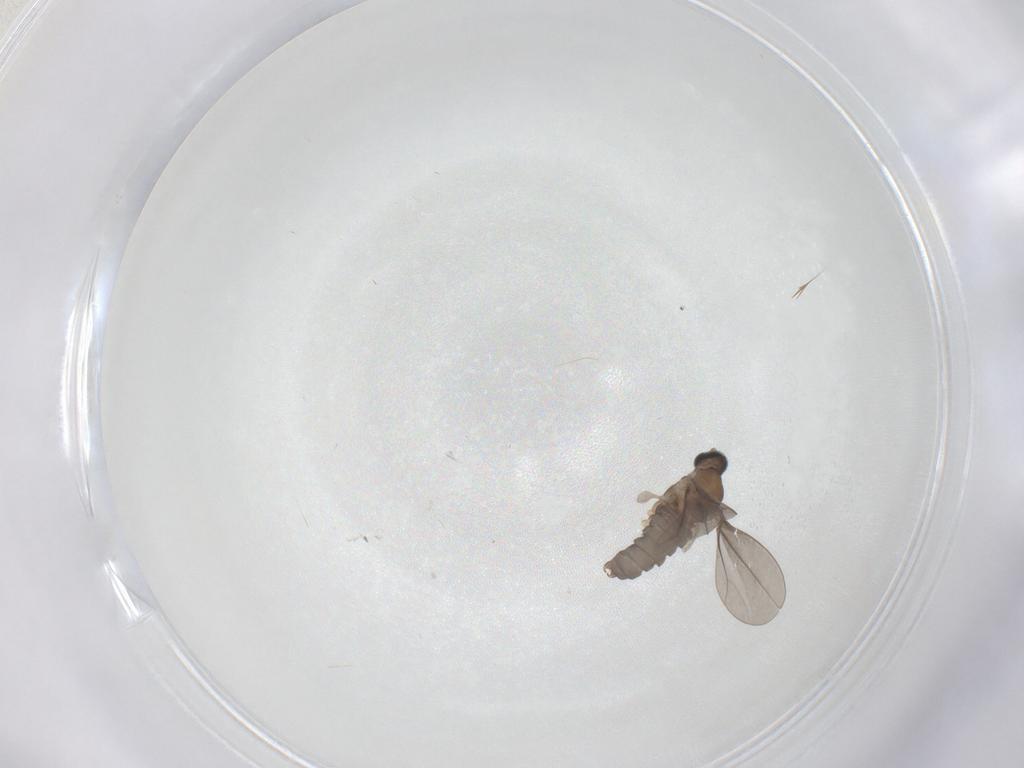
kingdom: Animalia
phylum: Arthropoda
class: Insecta
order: Diptera
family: Cecidomyiidae
